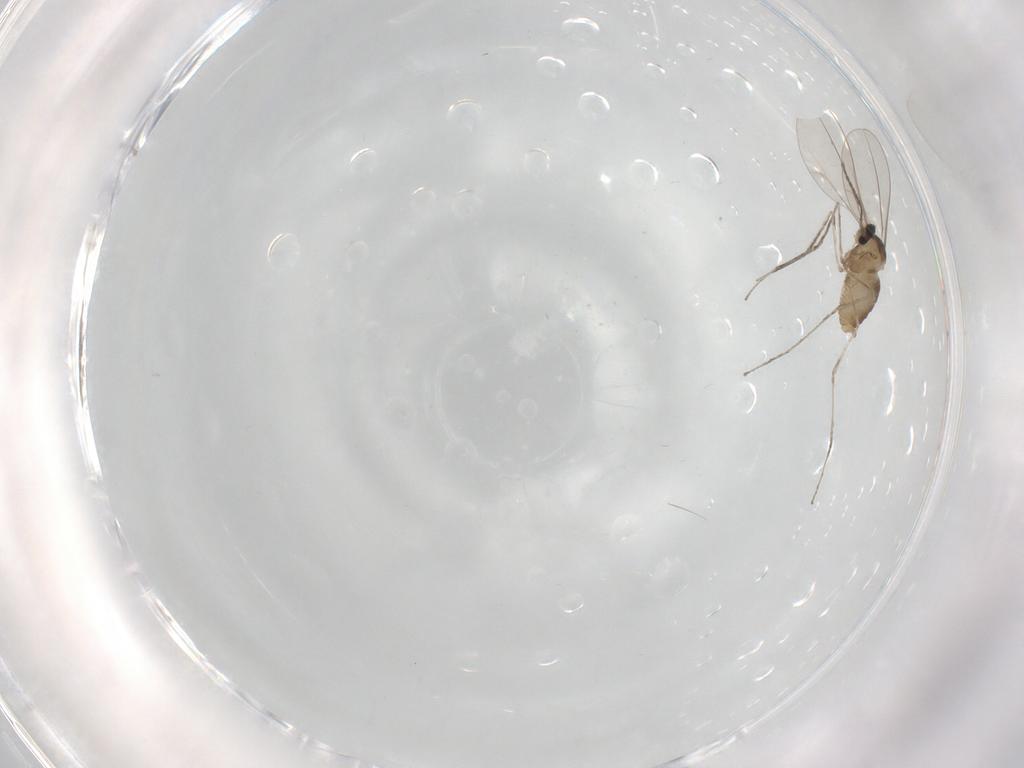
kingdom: Animalia
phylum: Arthropoda
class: Insecta
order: Diptera
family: Cecidomyiidae
